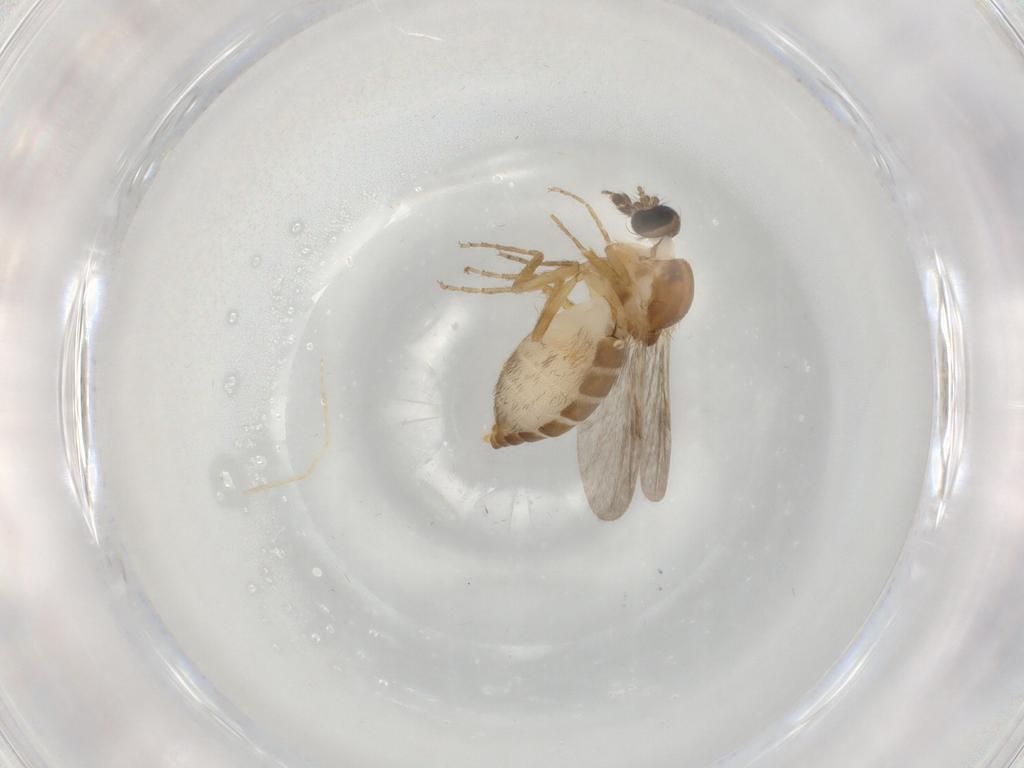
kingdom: Animalia
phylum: Arthropoda
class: Insecta
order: Diptera
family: Ceratopogonidae
